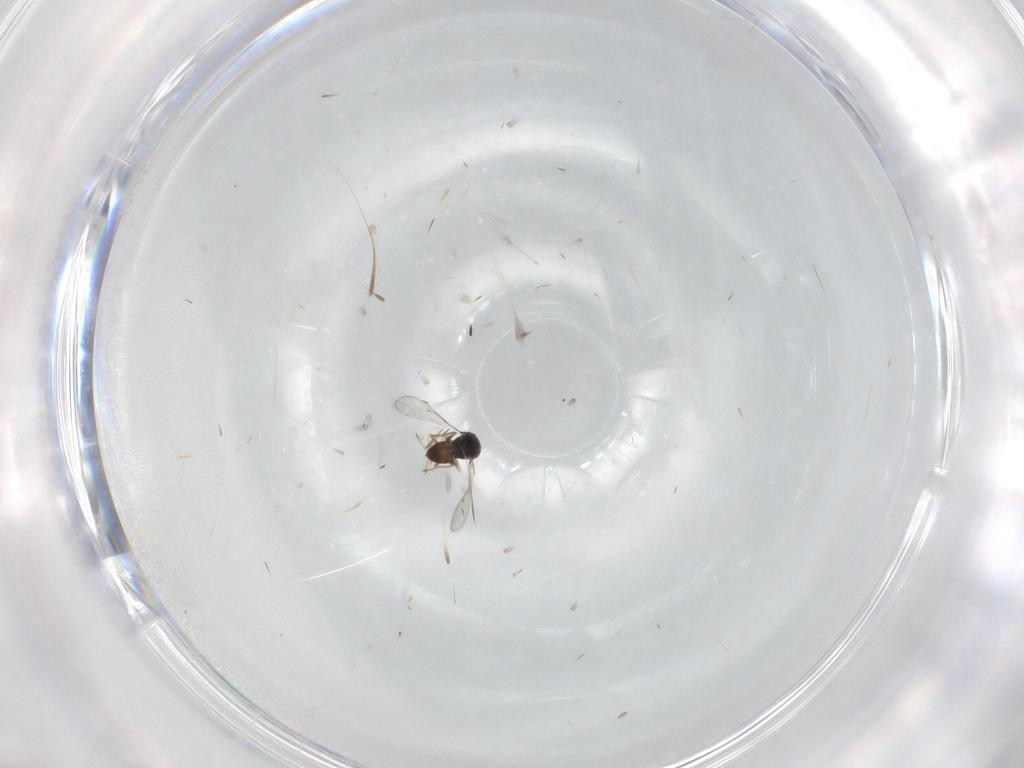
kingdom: Animalia
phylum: Arthropoda
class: Insecta
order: Hymenoptera
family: Eulophidae
